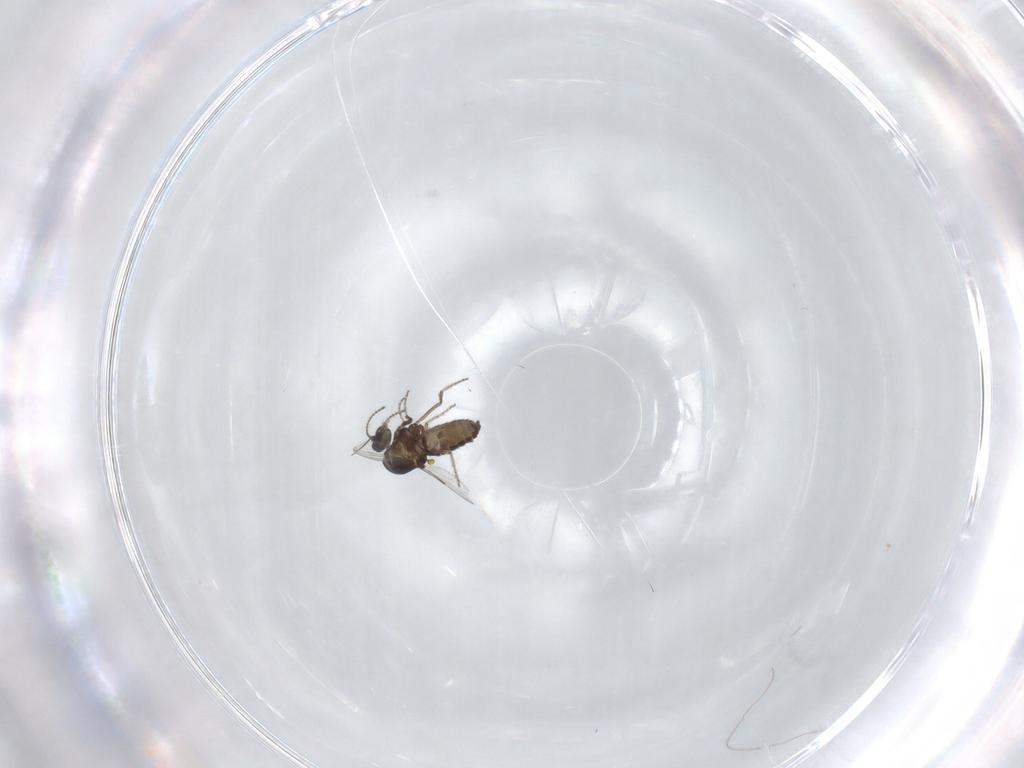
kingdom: Animalia
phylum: Arthropoda
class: Insecta
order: Diptera
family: Ceratopogonidae
